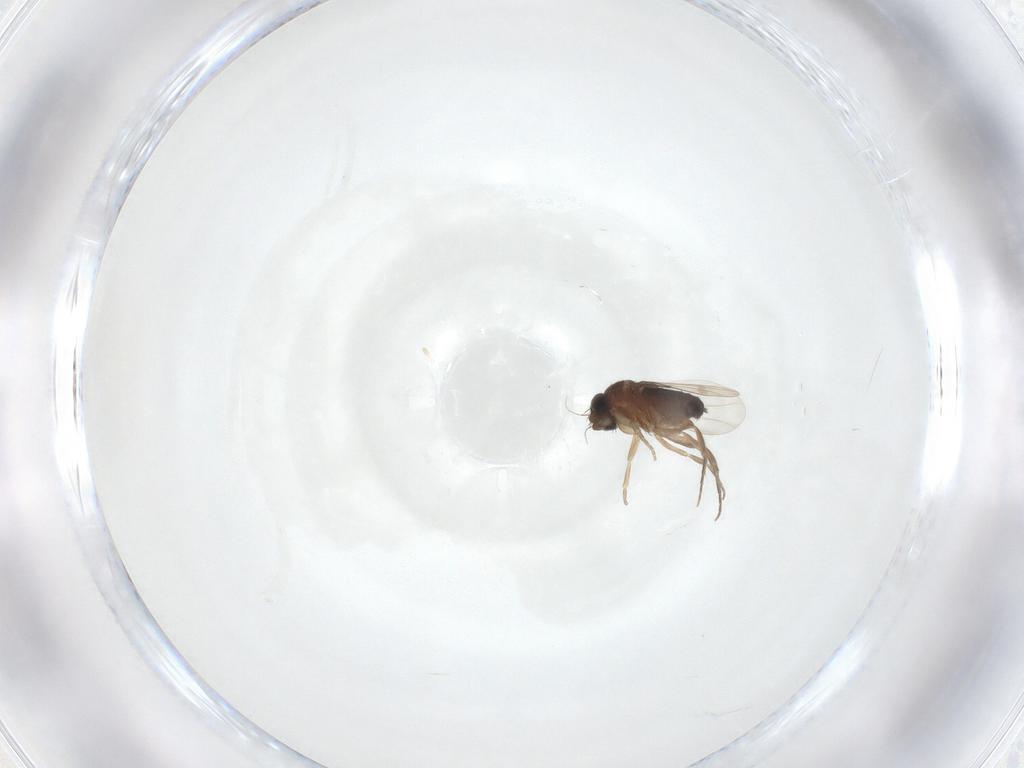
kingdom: Animalia
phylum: Arthropoda
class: Insecta
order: Diptera
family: Phoridae
